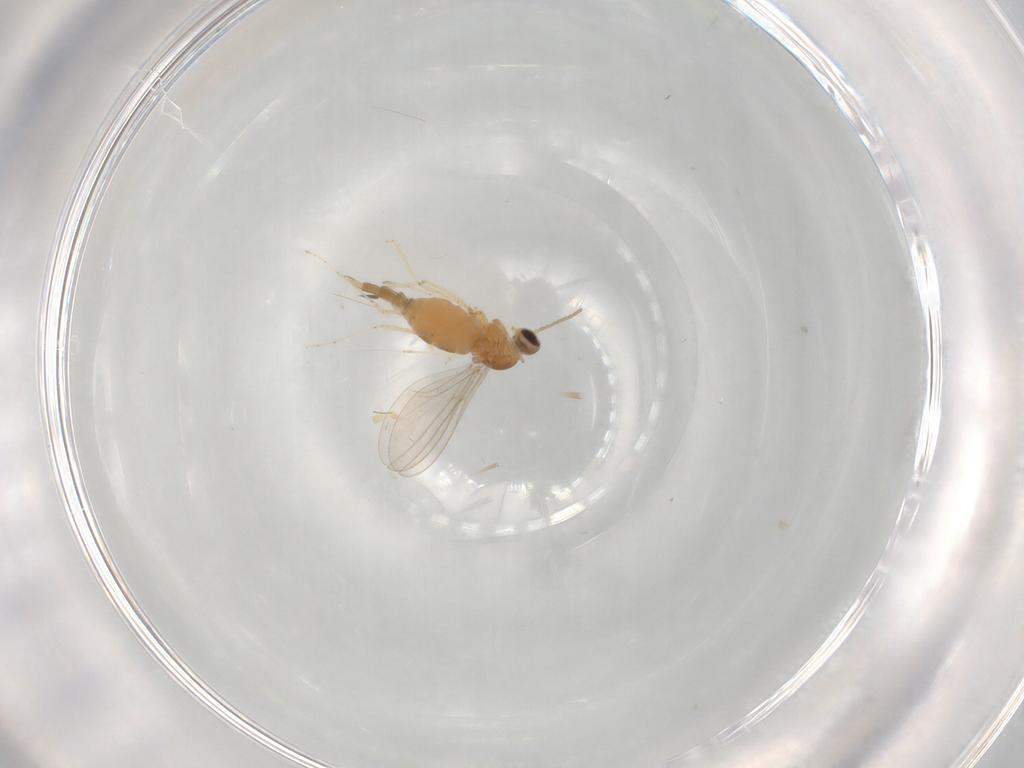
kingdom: Animalia
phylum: Arthropoda
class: Insecta
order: Diptera
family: Cecidomyiidae
